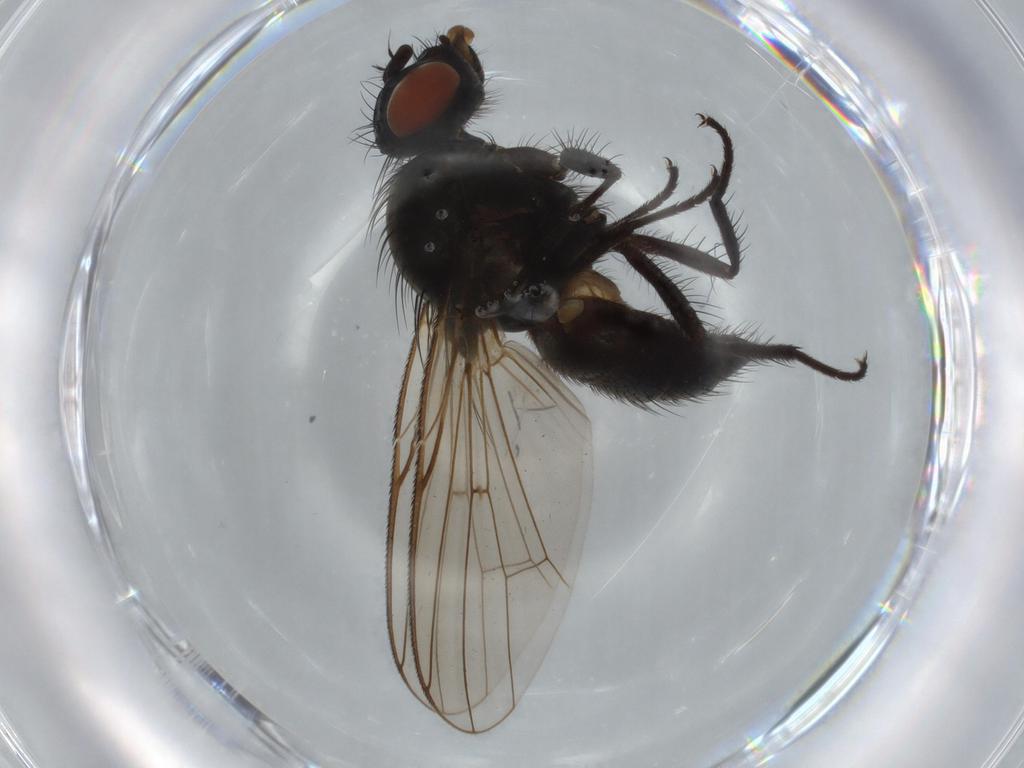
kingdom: Animalia
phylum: Arthropoda
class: Insecta
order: Diptera
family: Anthomyiidae
